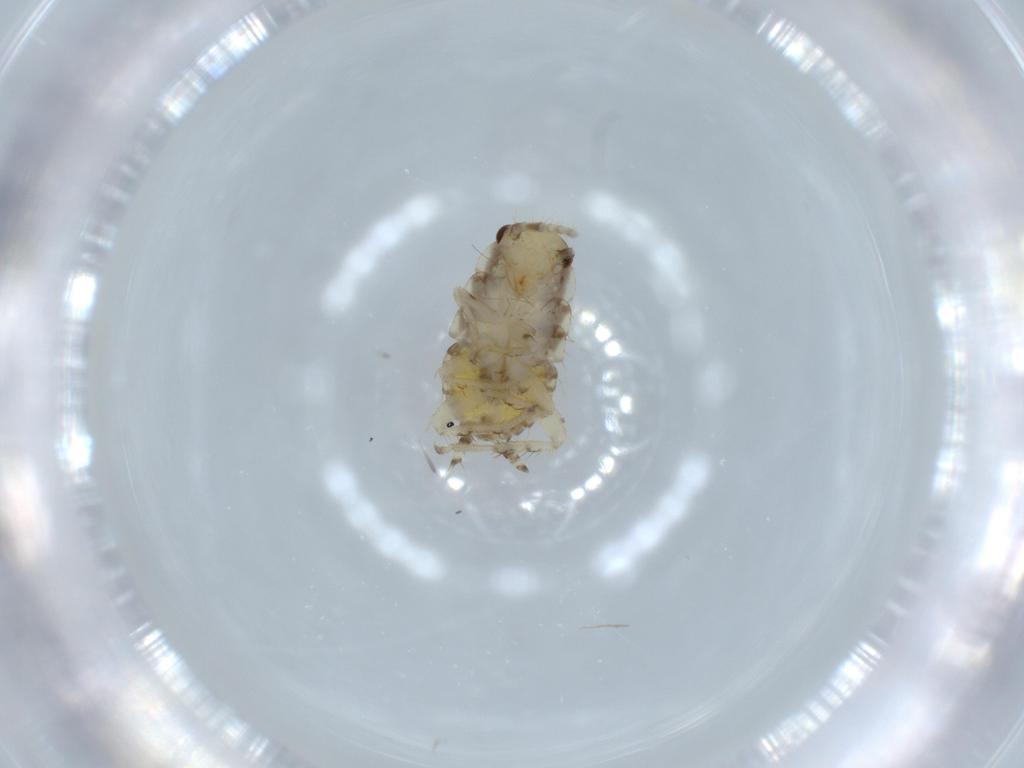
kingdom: Animalia
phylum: Arthropoda
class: Insecta
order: Blattodea
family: Ectobiidae
